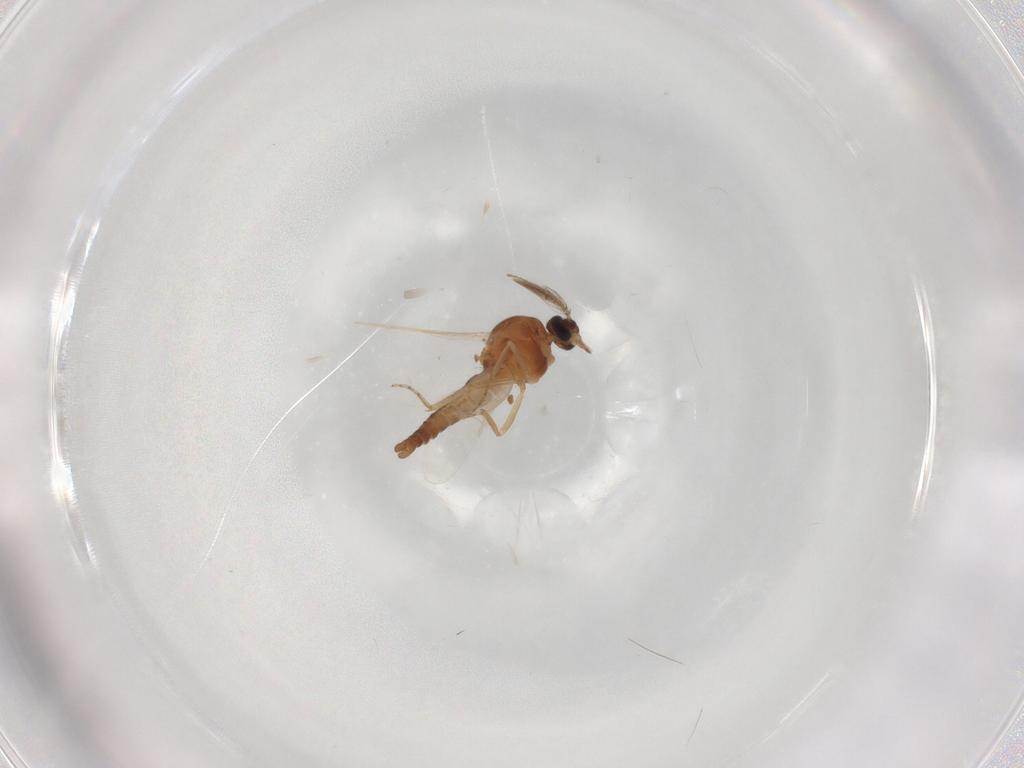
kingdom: Animalia
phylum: Arthropoda
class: Insecta
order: Diptera
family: Ceratopogonidae
